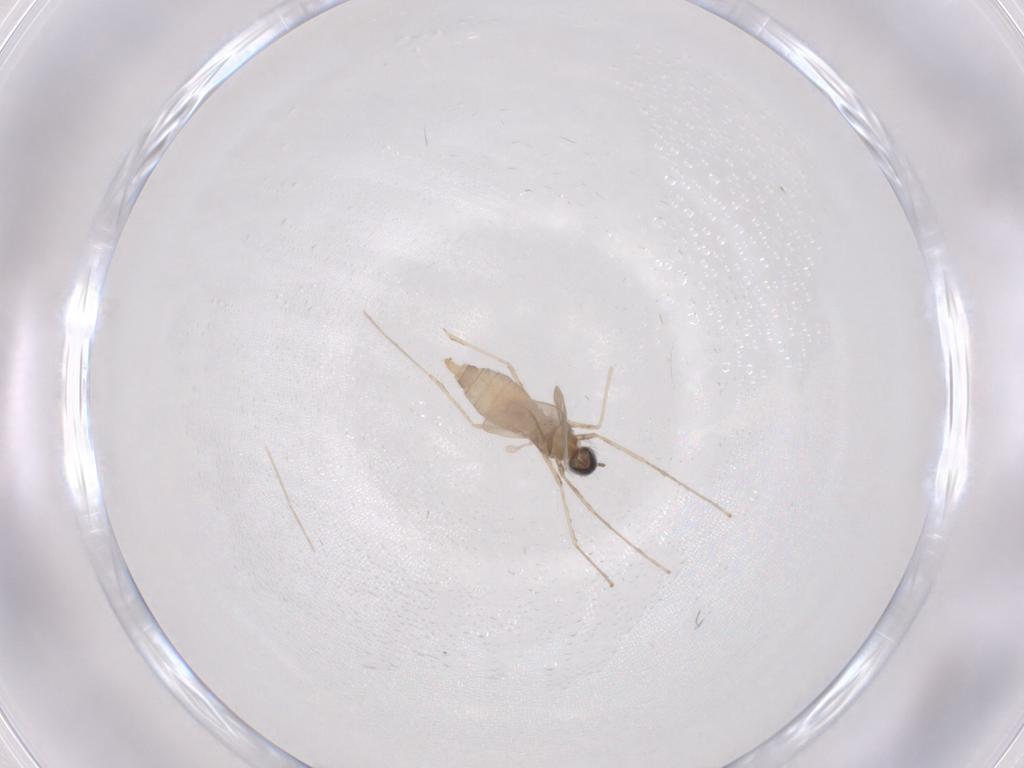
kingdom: Animalia
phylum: Arthropoda
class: Insecta
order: Diptera
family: Cecidomyiidae
